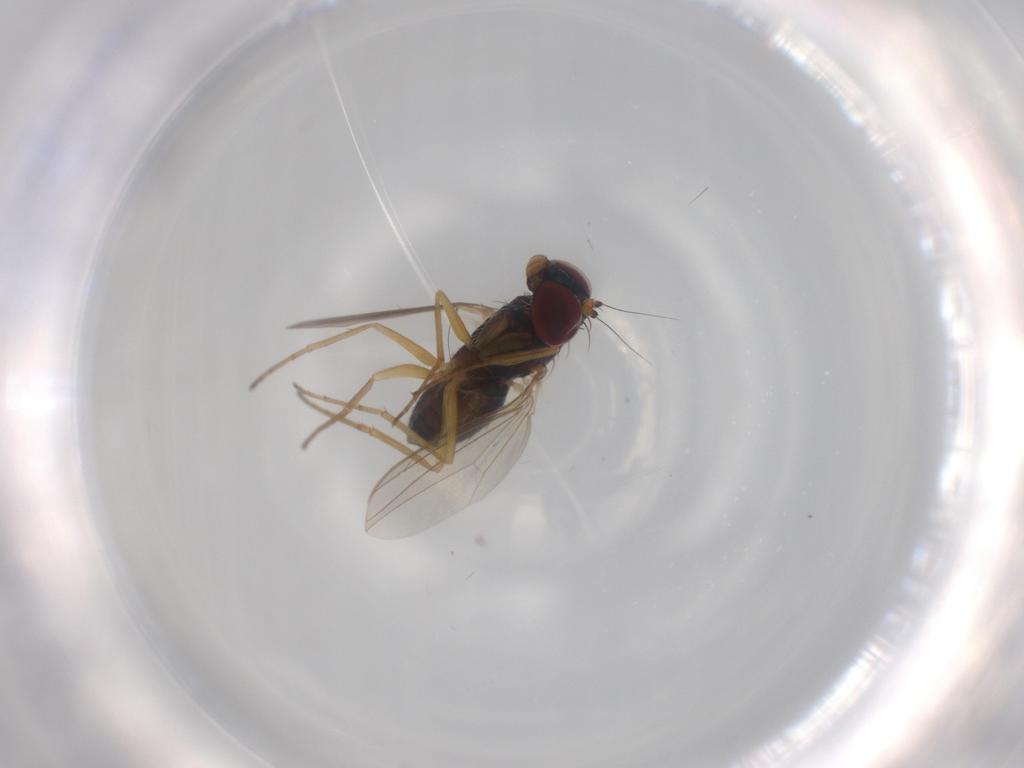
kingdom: Animalia
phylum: Arthropoda
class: Insecta
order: Diptera
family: Dolichopodidae
